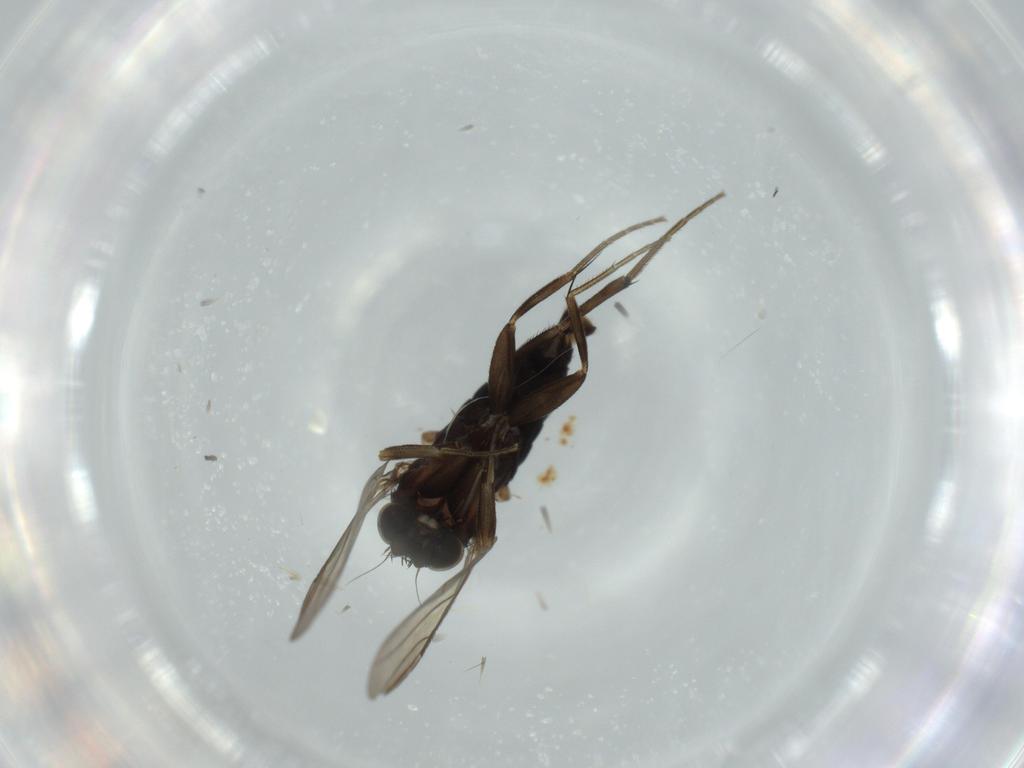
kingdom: Animalia
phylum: Arthropoda
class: Insecta
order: Diptera
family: Phoridae
